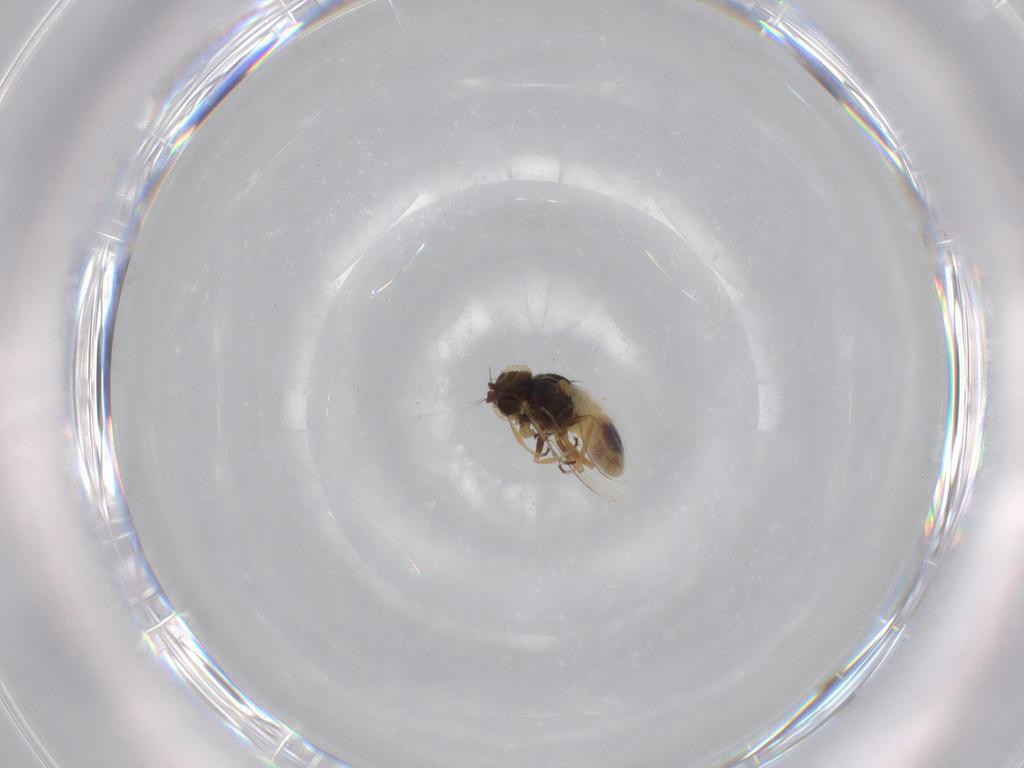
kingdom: Animalia
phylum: Arthropoda
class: Insecta
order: Diptera
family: Ephydridae
